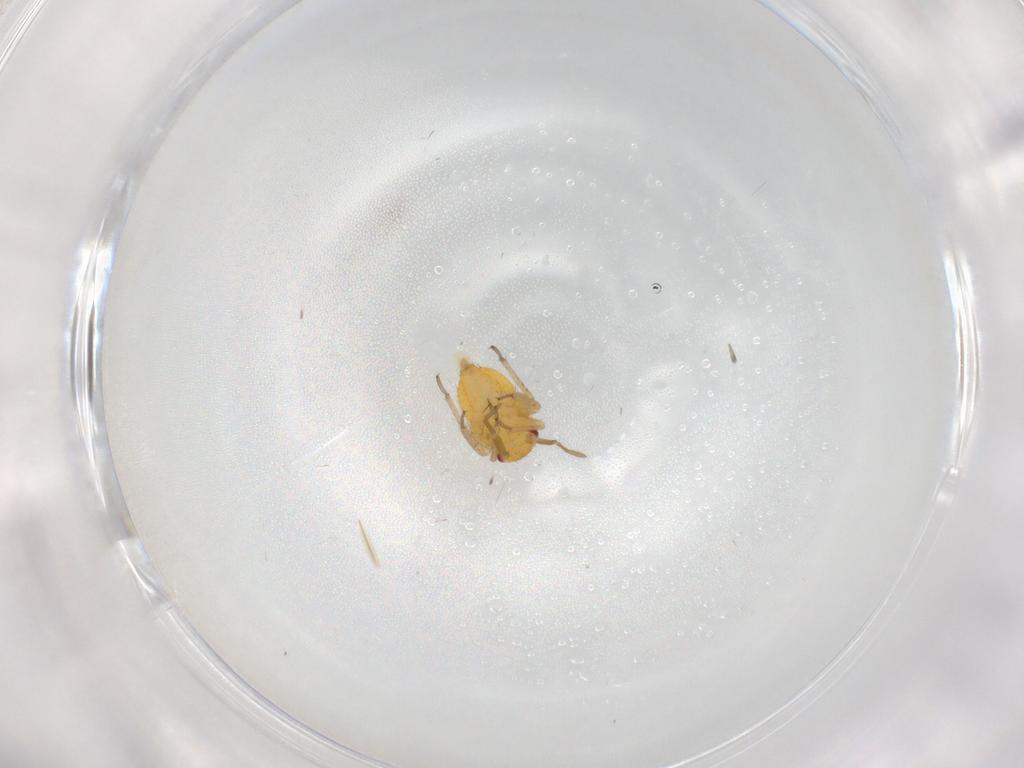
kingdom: Animalia
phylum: Arthropoda
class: Insecta
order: Hemiptera
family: Miridae
